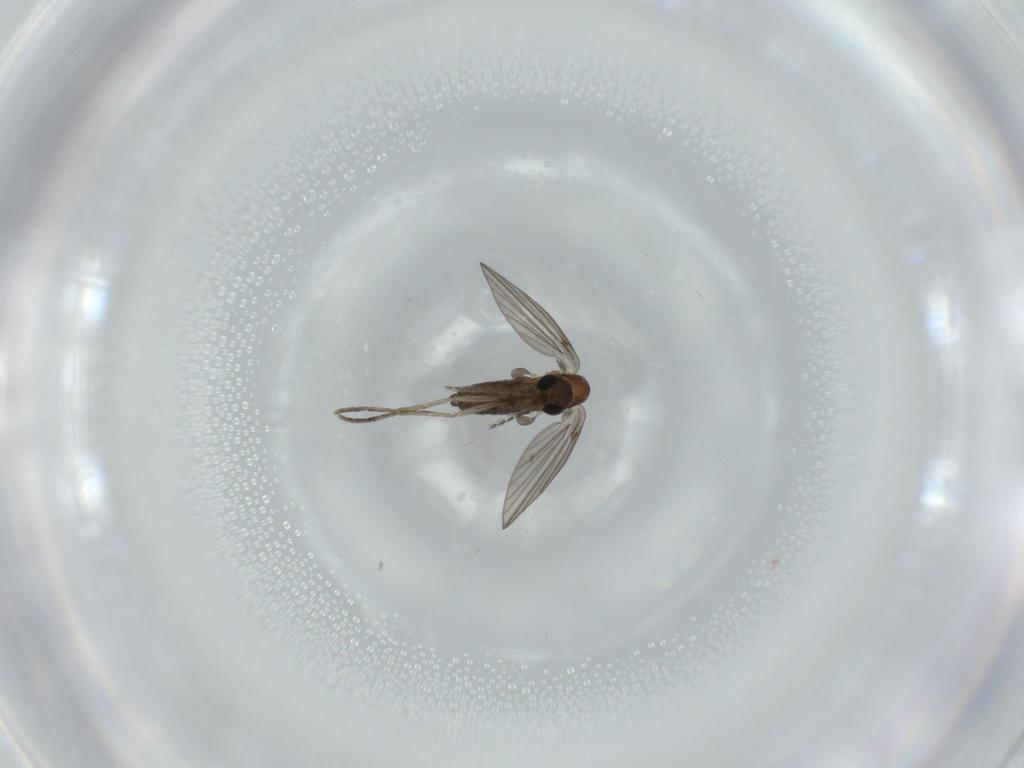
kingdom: Animalia
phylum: Arthropoda
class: Insecta
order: Diptera
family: Psychodidae
